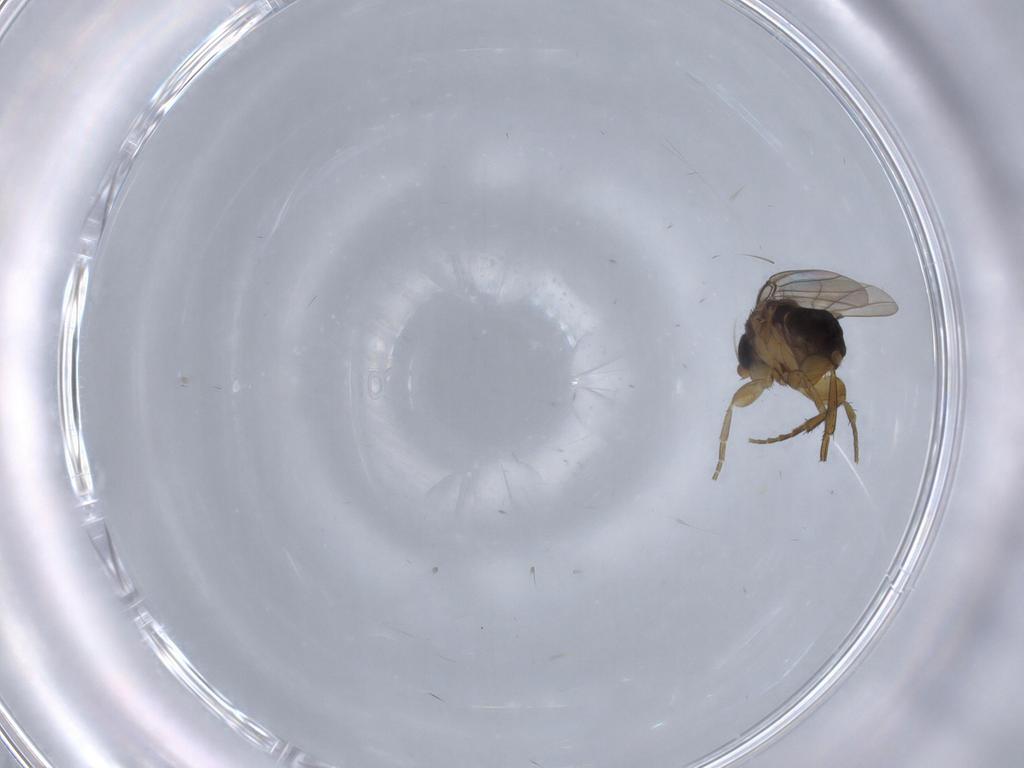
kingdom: Animalia
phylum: Arthropoda
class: Insecta
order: Diptera
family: Phoridae
